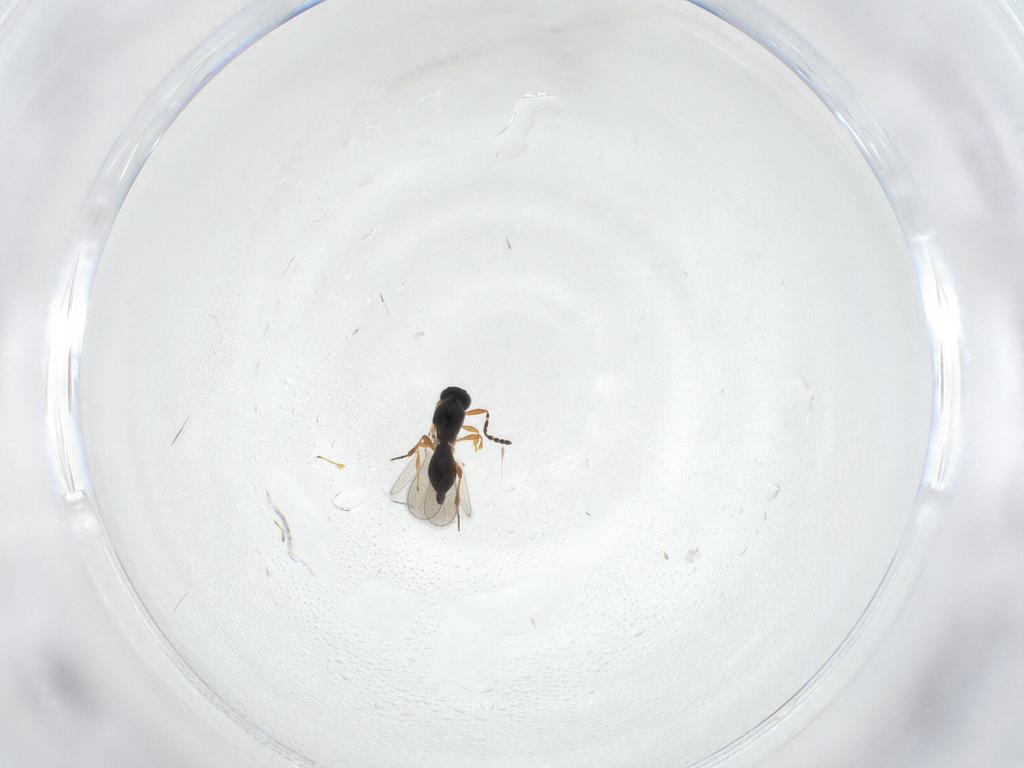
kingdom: Animalia
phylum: Arthropoda
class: Insecta
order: Hymenoptera
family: Platygastridae
